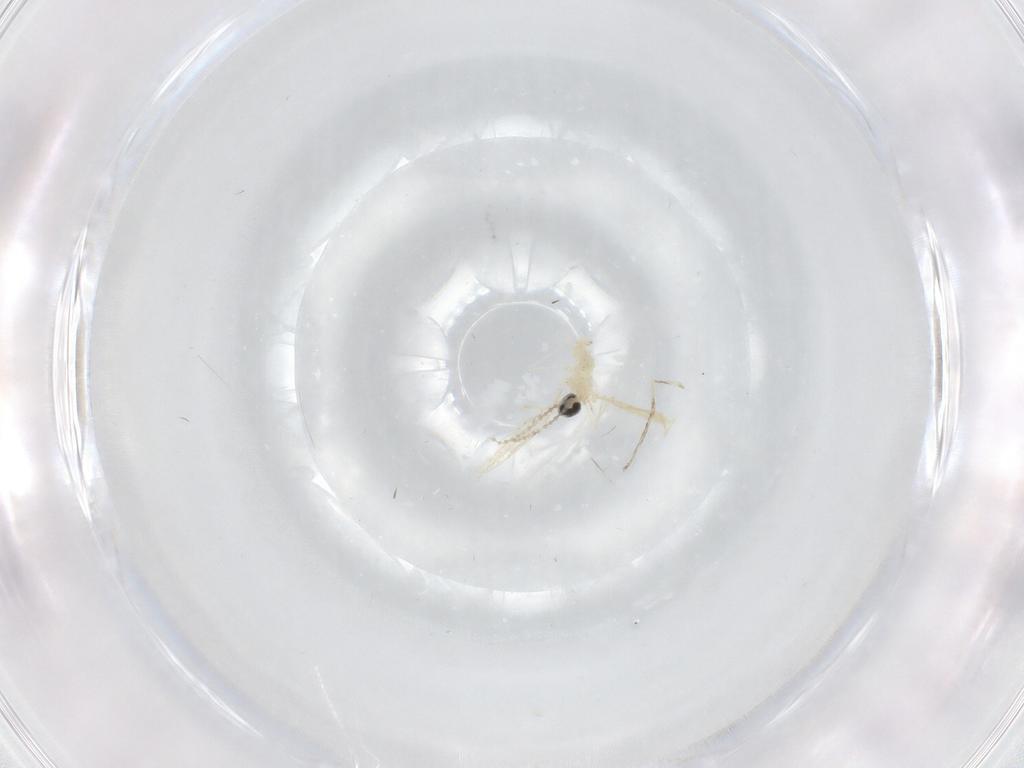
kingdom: Animalia
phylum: Arthropoda
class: Insecta
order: Diptera
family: Cecidomyiidae
